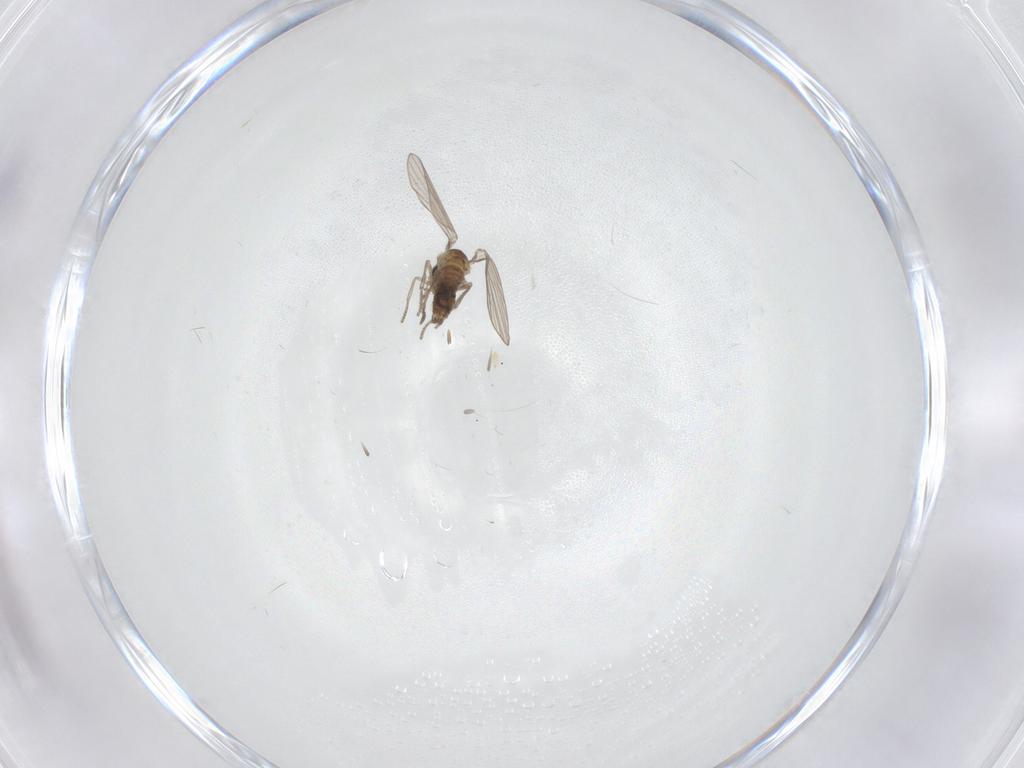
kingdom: Animalia
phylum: Arthropoda
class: Insecta
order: Diptera
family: Psychodidae
